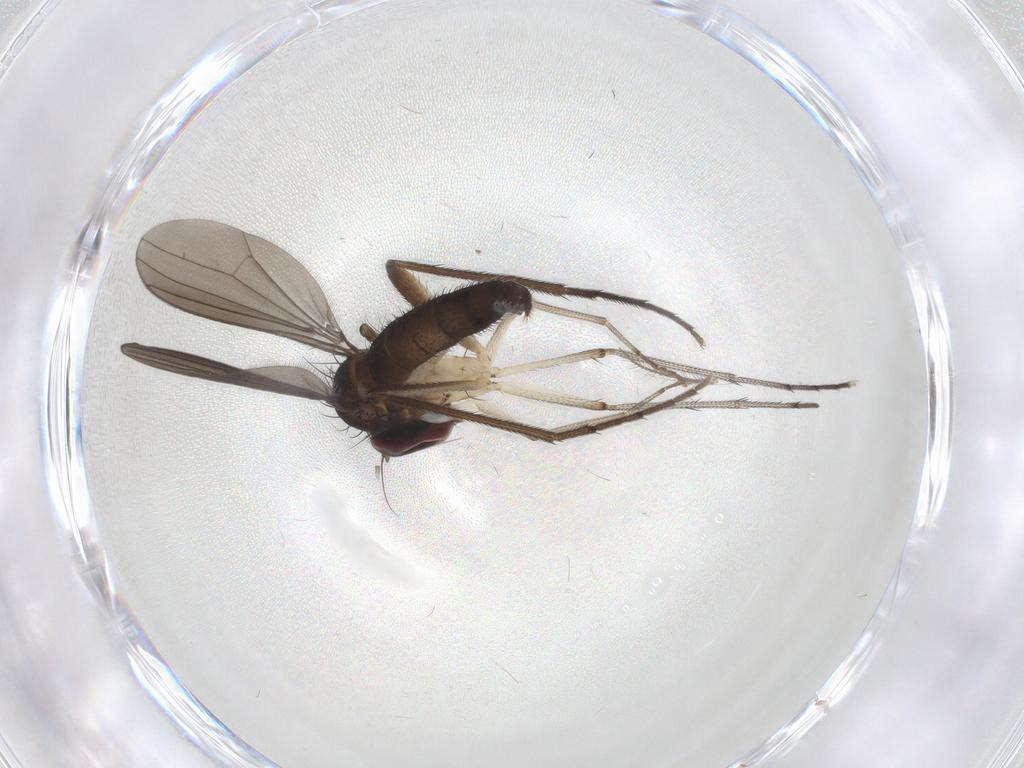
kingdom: Animalia
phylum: Arthropoda
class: Insecta
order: Diptera
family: Dolichopodidae
